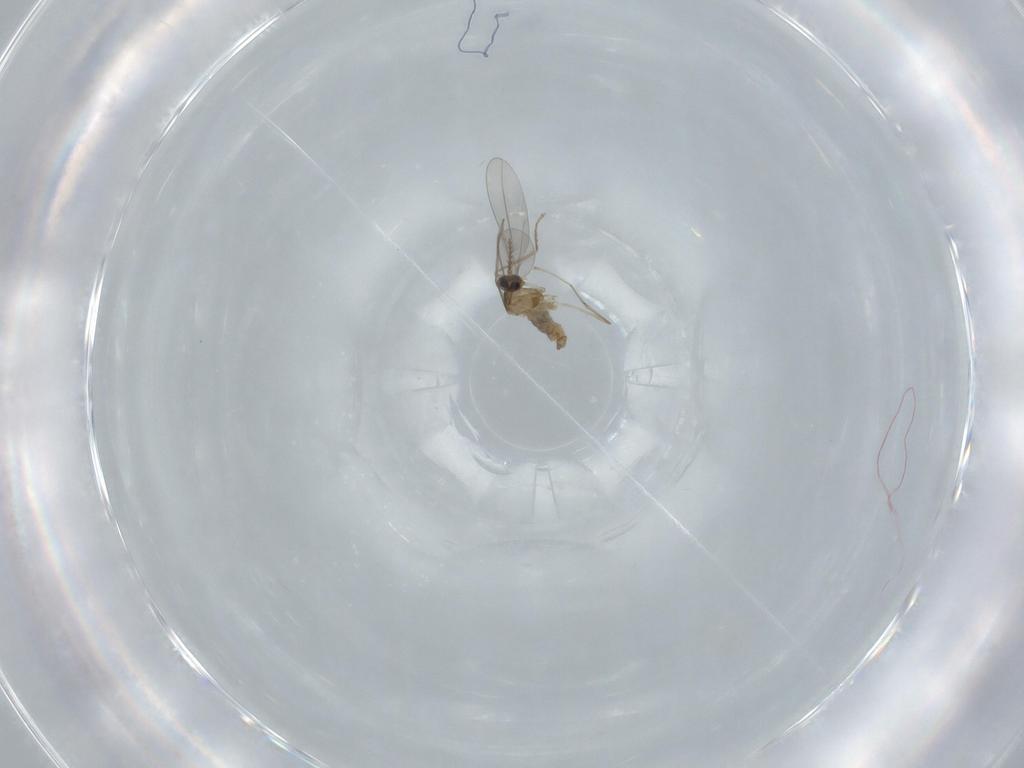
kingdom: Animalia
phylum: Arthropoda
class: Insecta
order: Diptera
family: Cecidomyiidae
